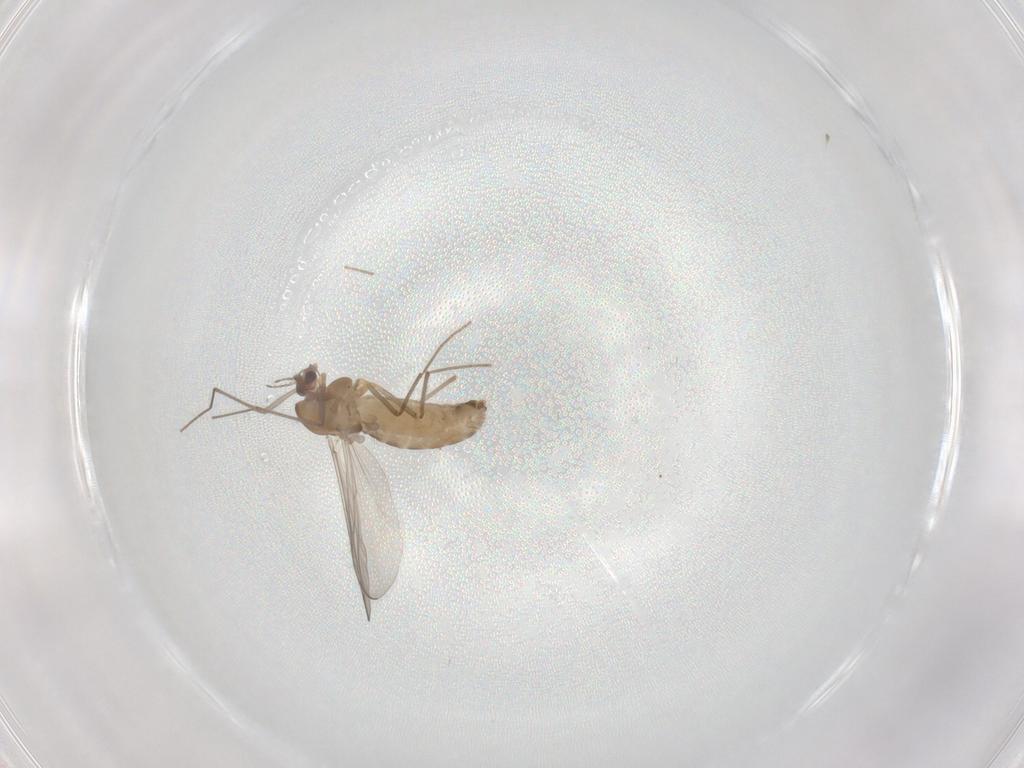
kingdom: Animalia
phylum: Arthropoda
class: Insecta
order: Diptera
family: Chironomidae
